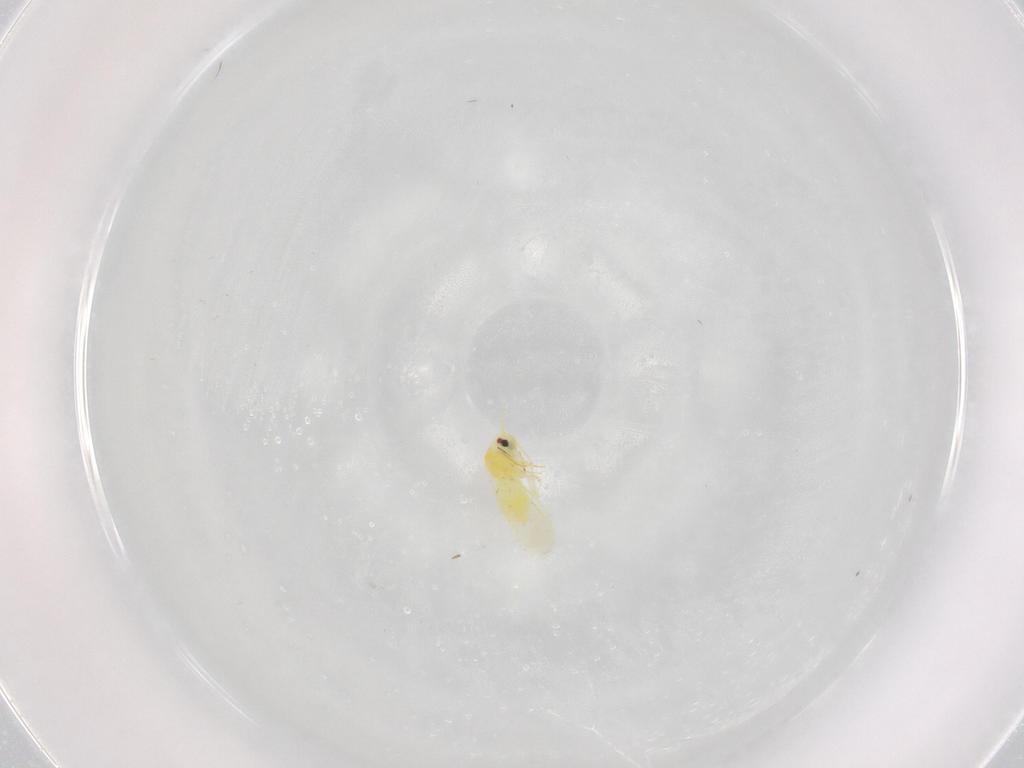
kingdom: Animalia
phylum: Arthropoda
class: Insecta
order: Hemiptera
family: Aleyrodidae
